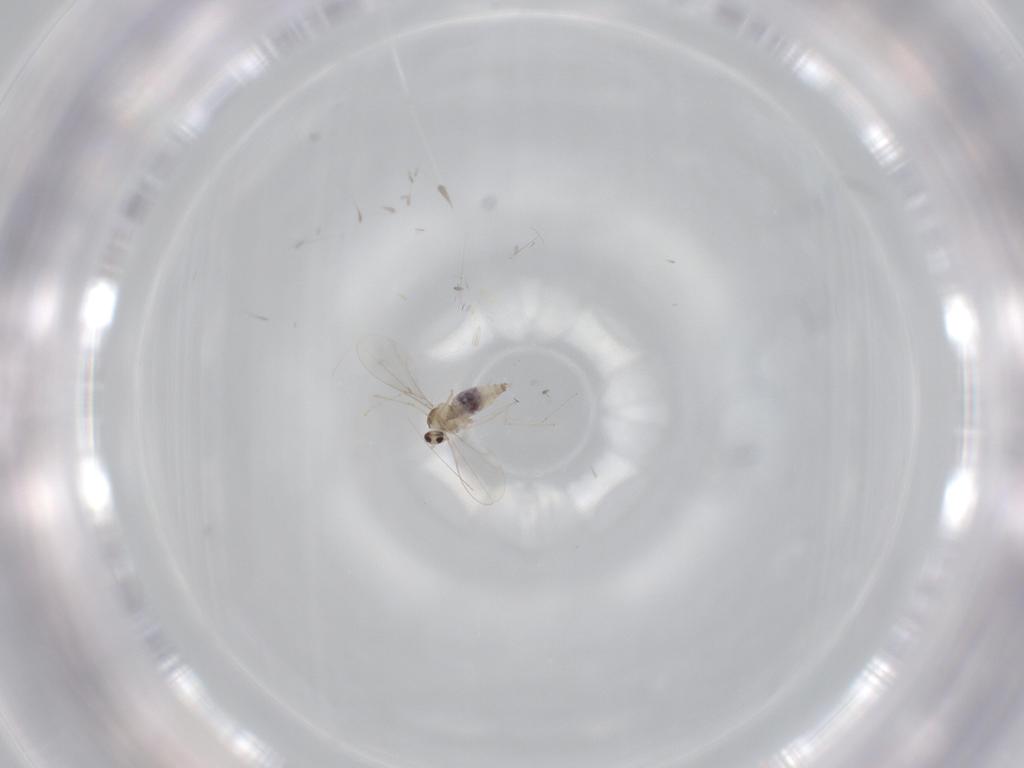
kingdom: Animalia
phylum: Arthropoda
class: Insecta
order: Diptera
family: Cecidomyiidae
